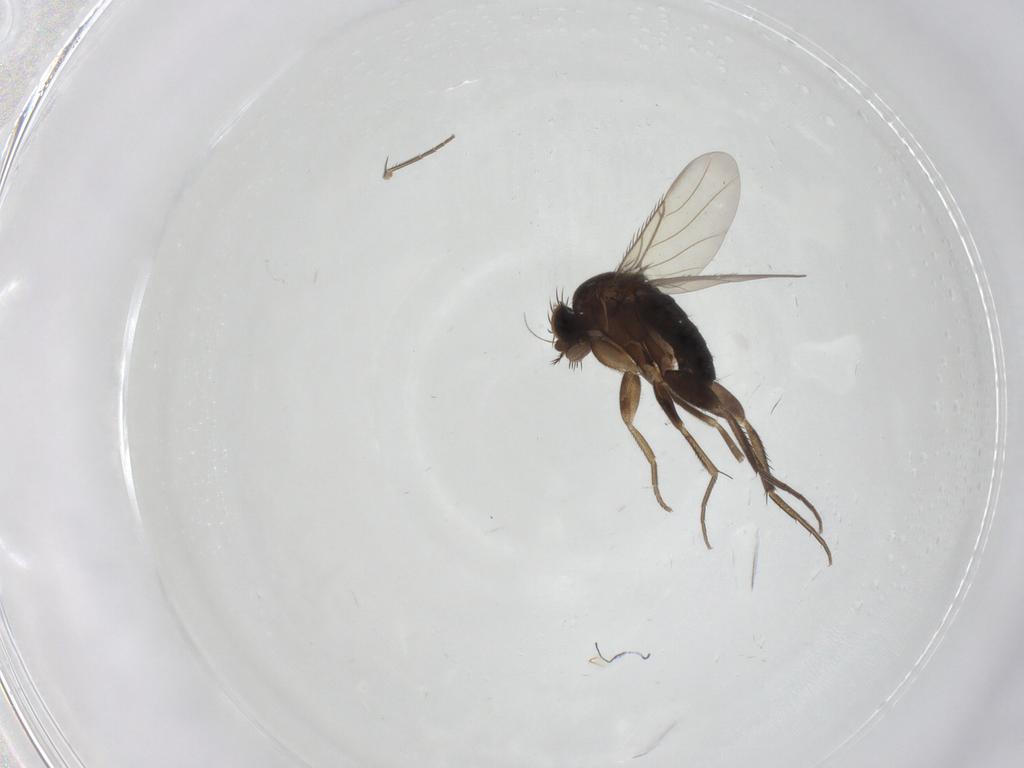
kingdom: Animalia
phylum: Arthropoda
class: Insecta
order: Diptera
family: Phoridae
